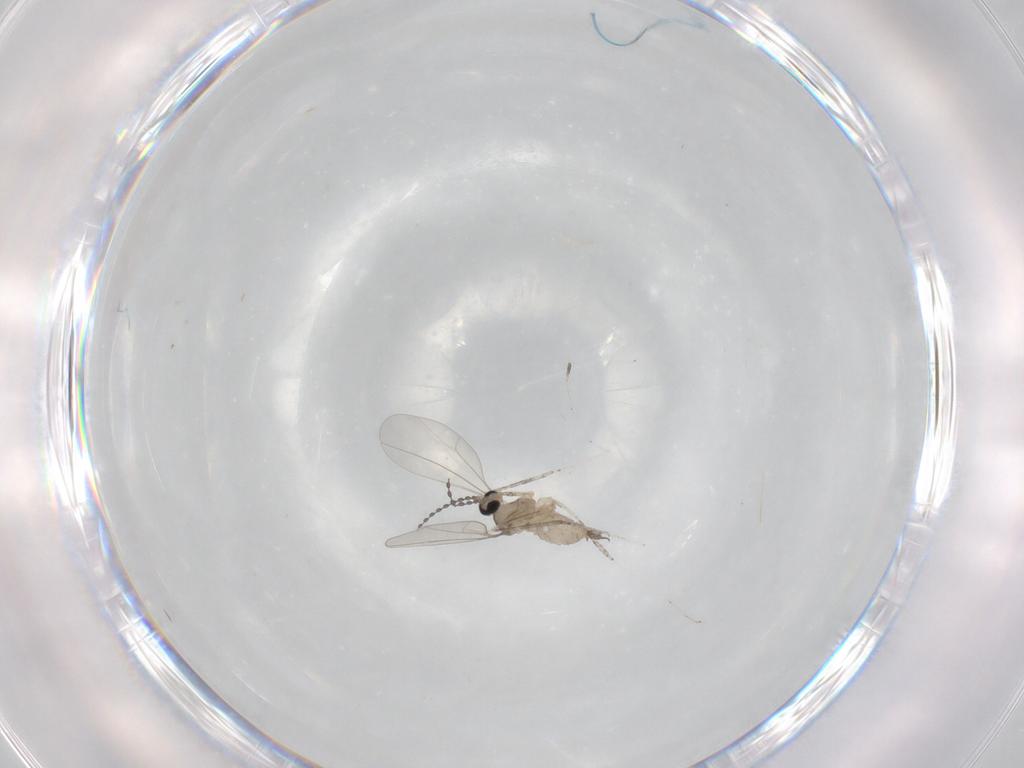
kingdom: Animalia
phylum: Arthropoda
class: Insecta
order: Diptera
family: Cecidomyiidae
